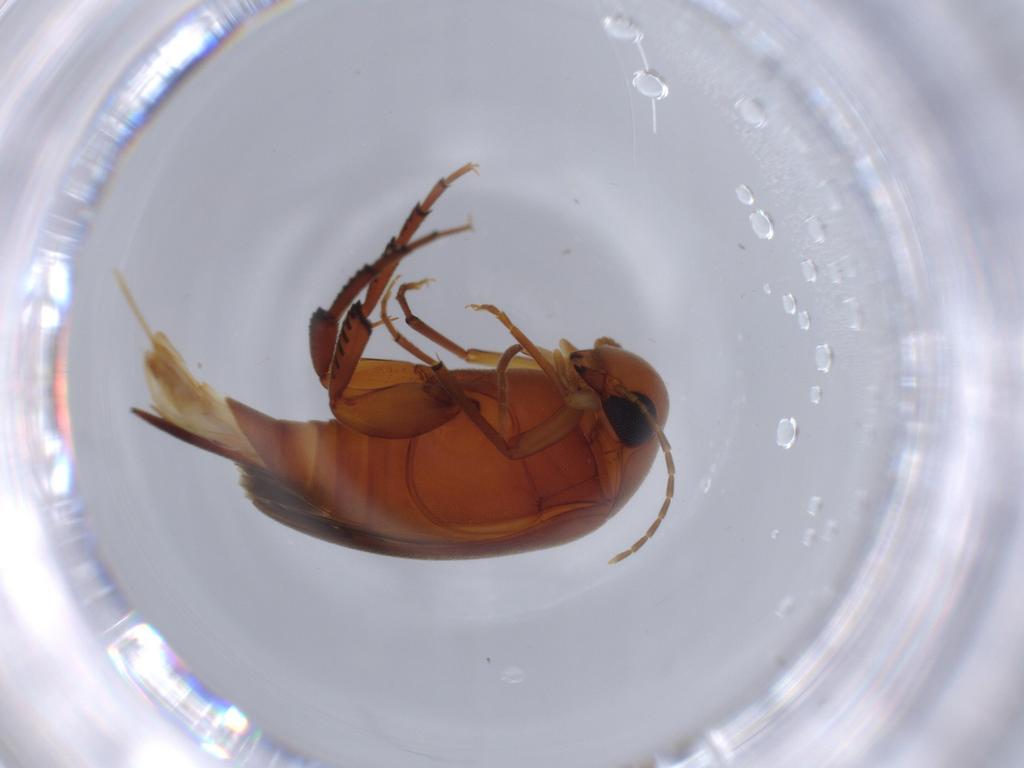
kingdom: Animalia
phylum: Arthropoda
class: Insecta
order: Coleoptera
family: Mordellidae
